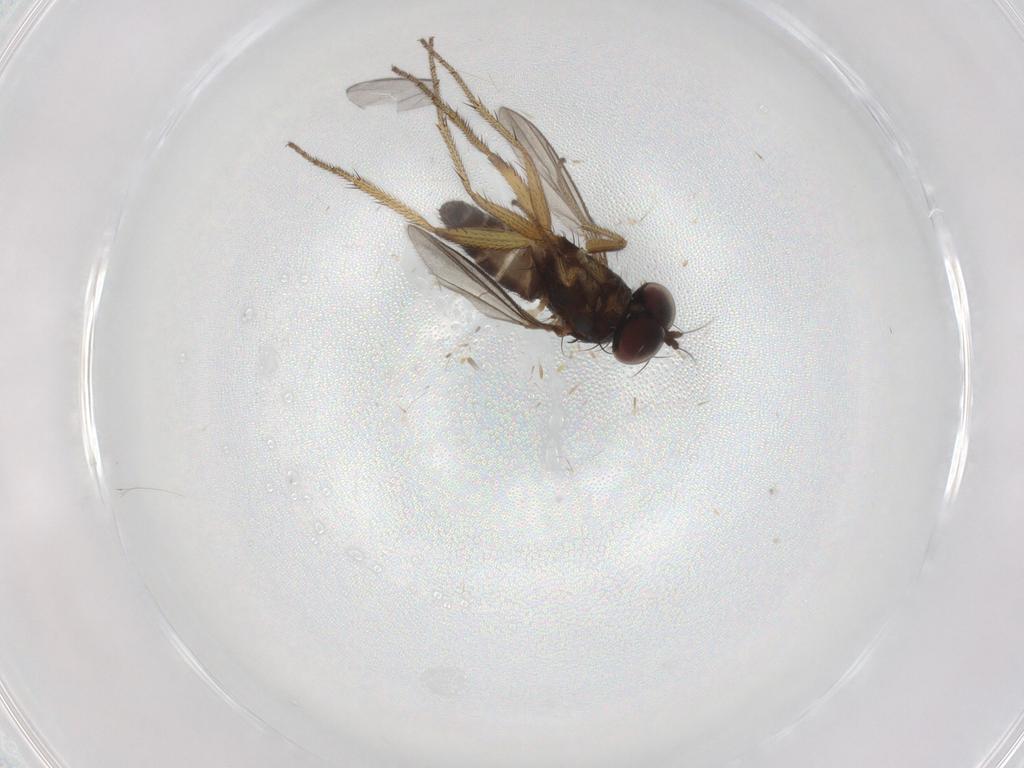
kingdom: Animalia
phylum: Arthropoda
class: Insecta
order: Diptera
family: Sciaridae
